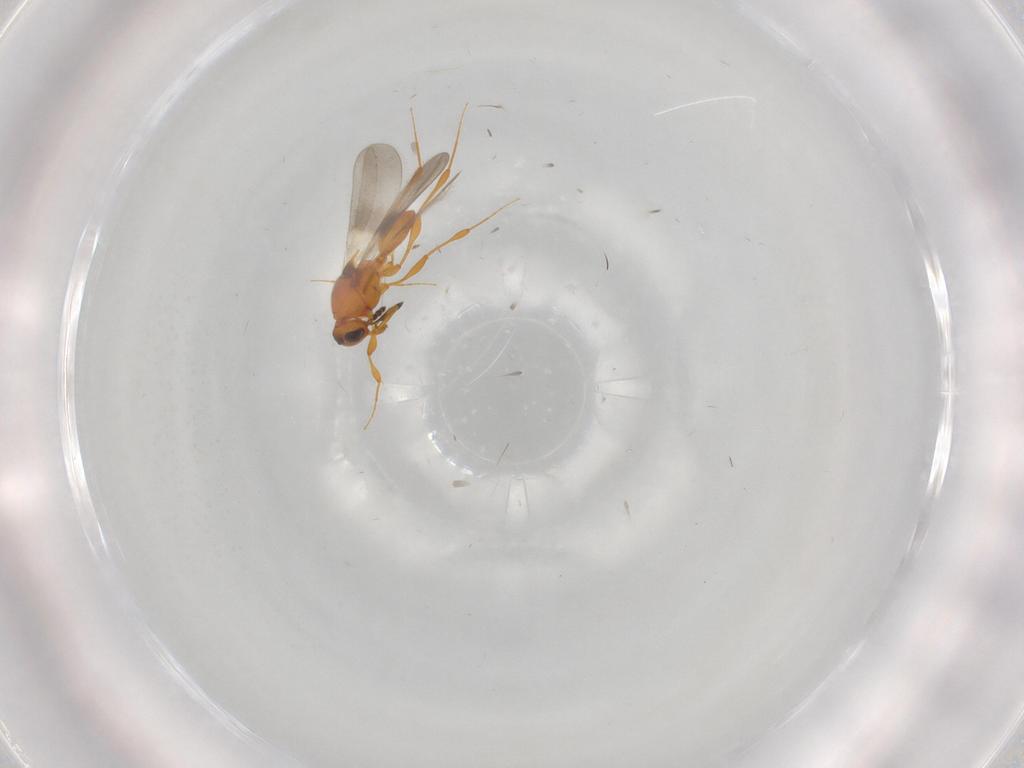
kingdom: Animalia
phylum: Arthropoda
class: Insecta
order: Hymenoptera
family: Platygastridae
